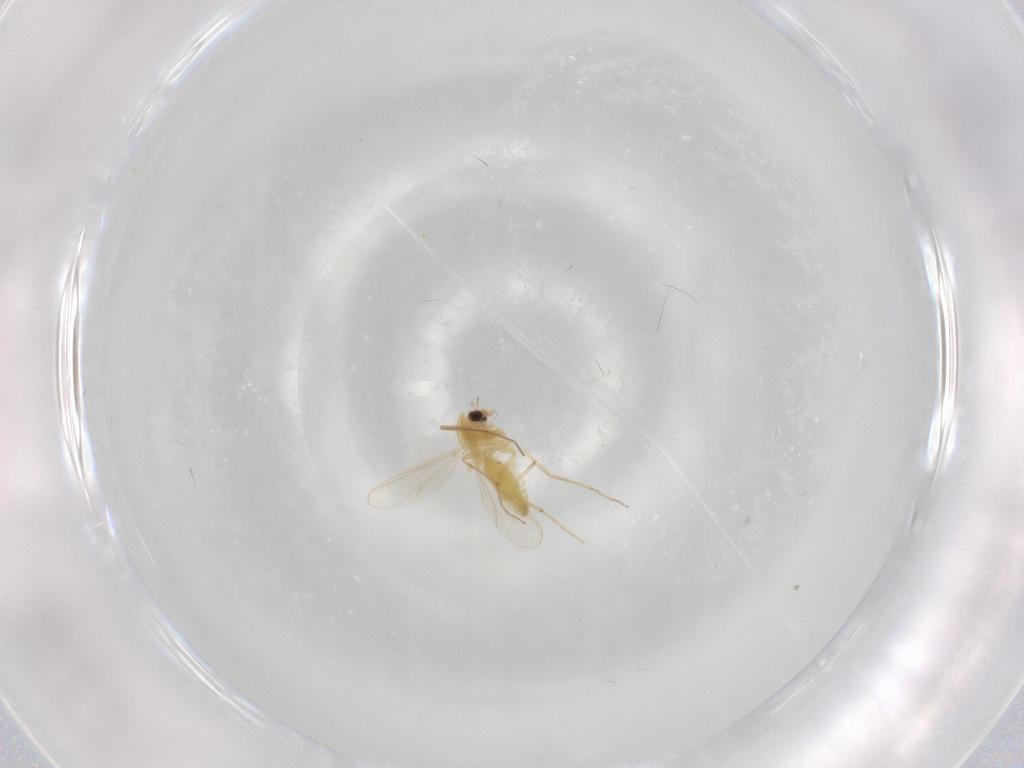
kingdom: Animalia
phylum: Arthropoda
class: Insecta
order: Diptera
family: Chironomidae
